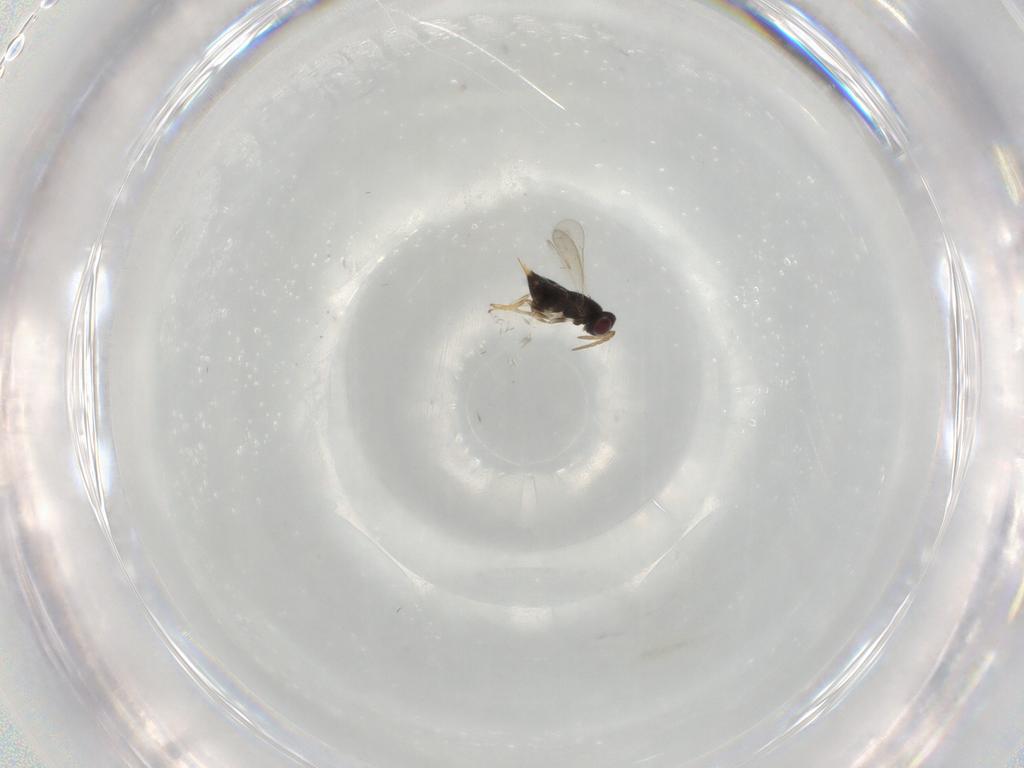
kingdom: Animalia
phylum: Arthropoda
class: Insecta
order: Hymenoptera
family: Aphelinidae
